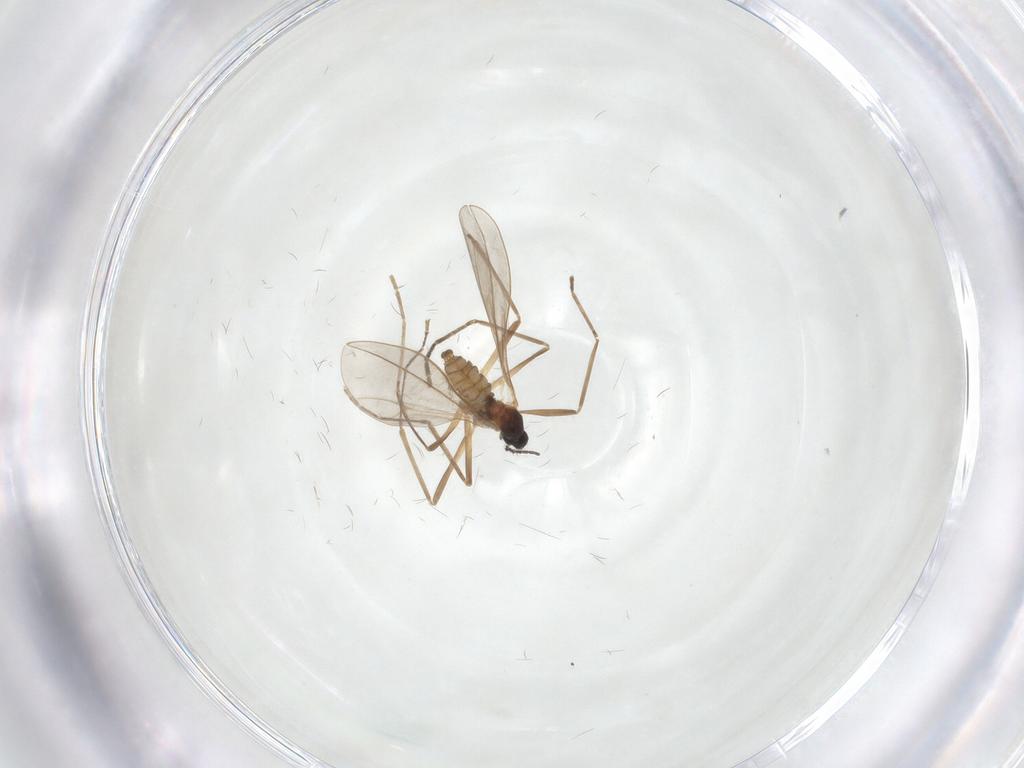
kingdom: Animalia
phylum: Arthropoda
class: Insecta
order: Diptera
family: Cecidomyiidae
